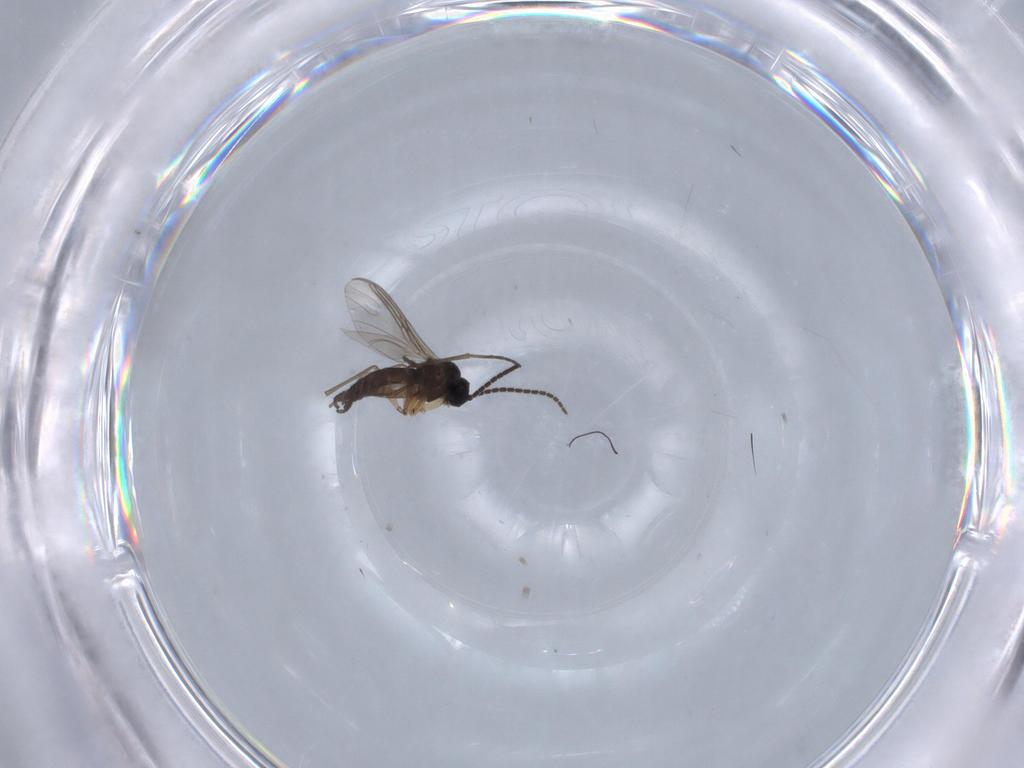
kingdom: Animalia
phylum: Arthropoda
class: Insecta
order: Diptera
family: Sciaridae
